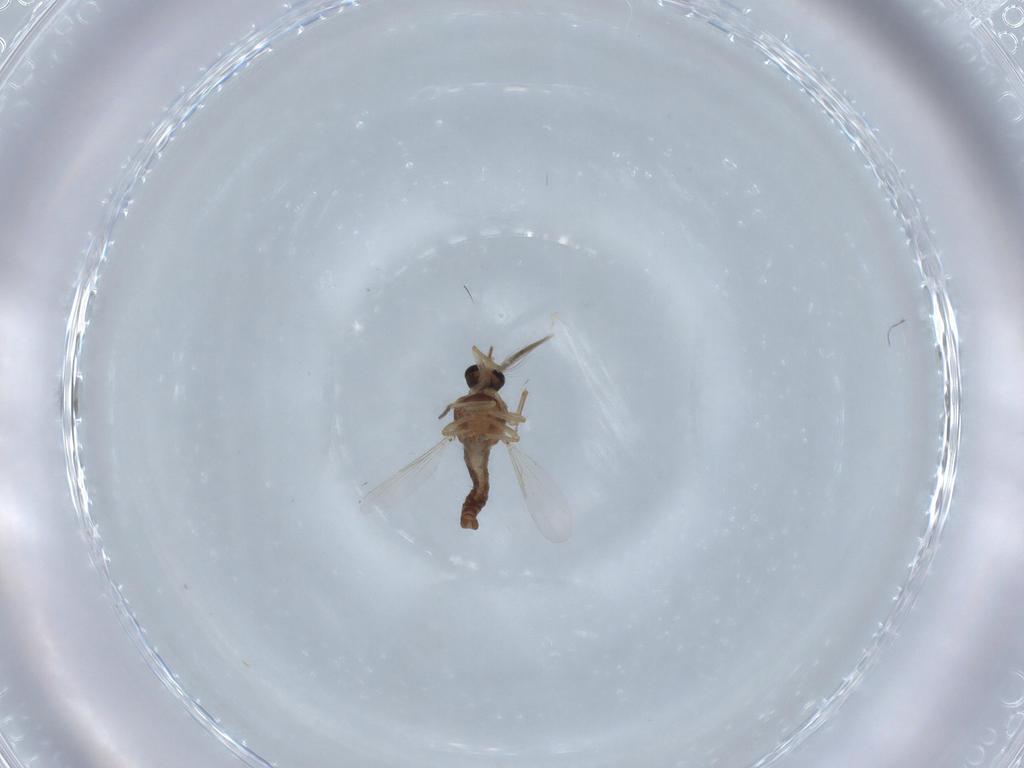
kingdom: Animalia
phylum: Arthropoda
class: Insecta
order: Diptera
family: Ceratopogonidae
